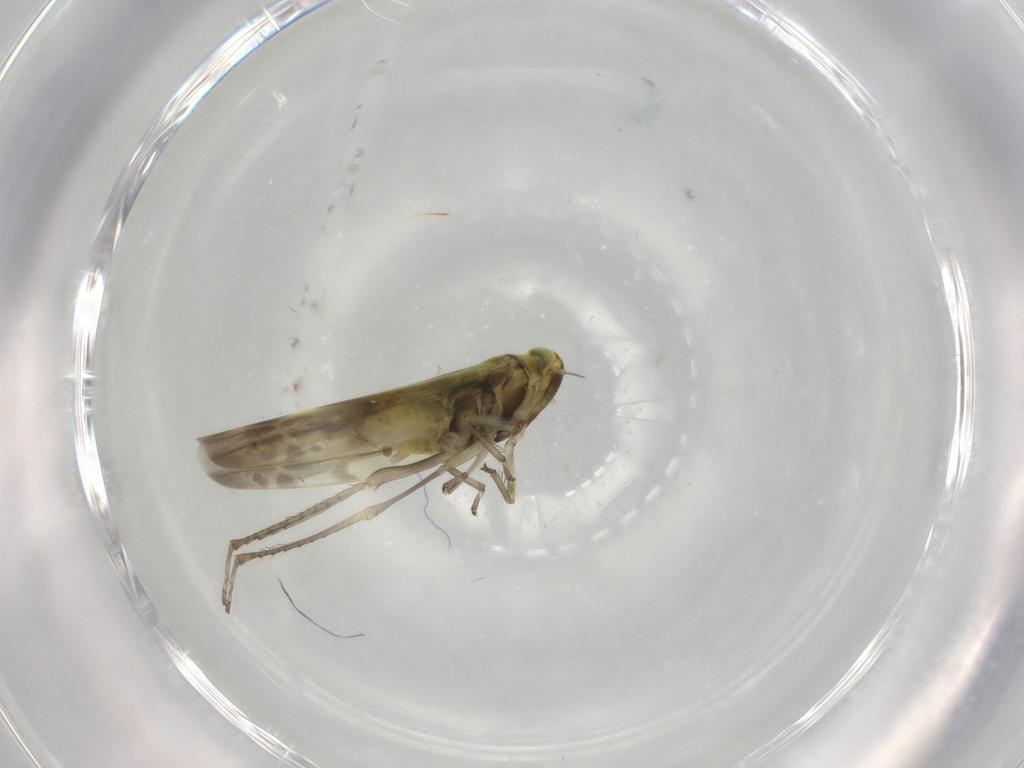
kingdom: Animalia
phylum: Arthropoda
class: Insecta
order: Hemiptera
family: Cicadellidae
